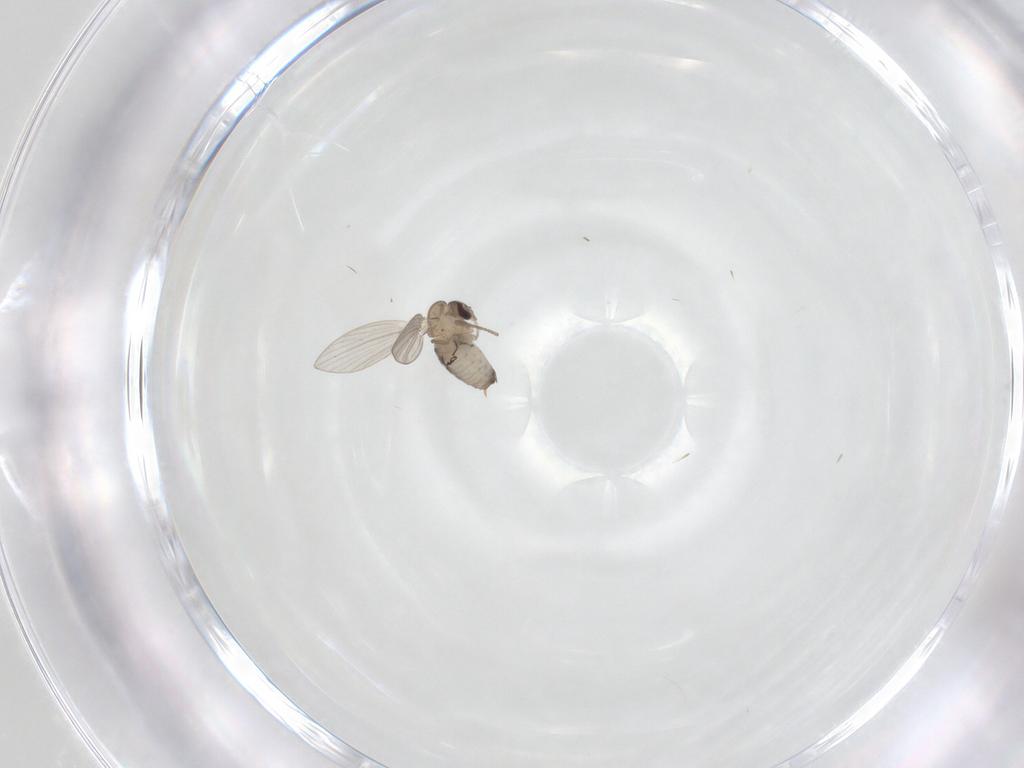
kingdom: Animalia
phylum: Arthropoda
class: Insecta
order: Diptera
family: Psychodidae
